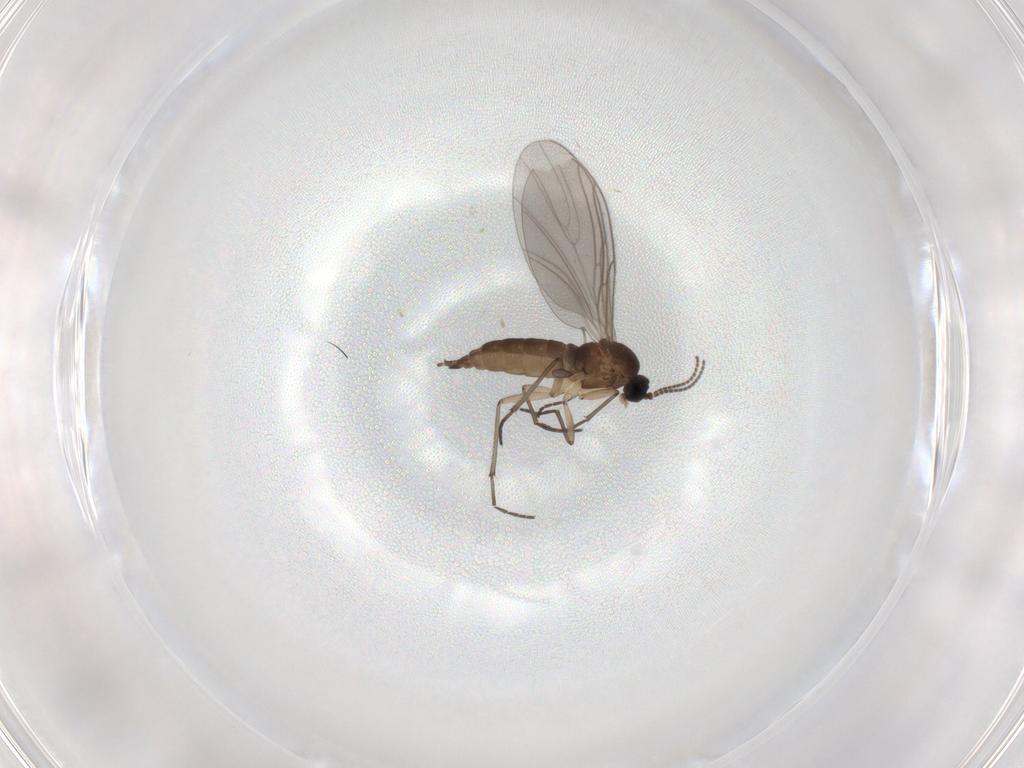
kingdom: Animalia
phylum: Arthropoda
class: Insecta
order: Diptera
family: Sciaridae
